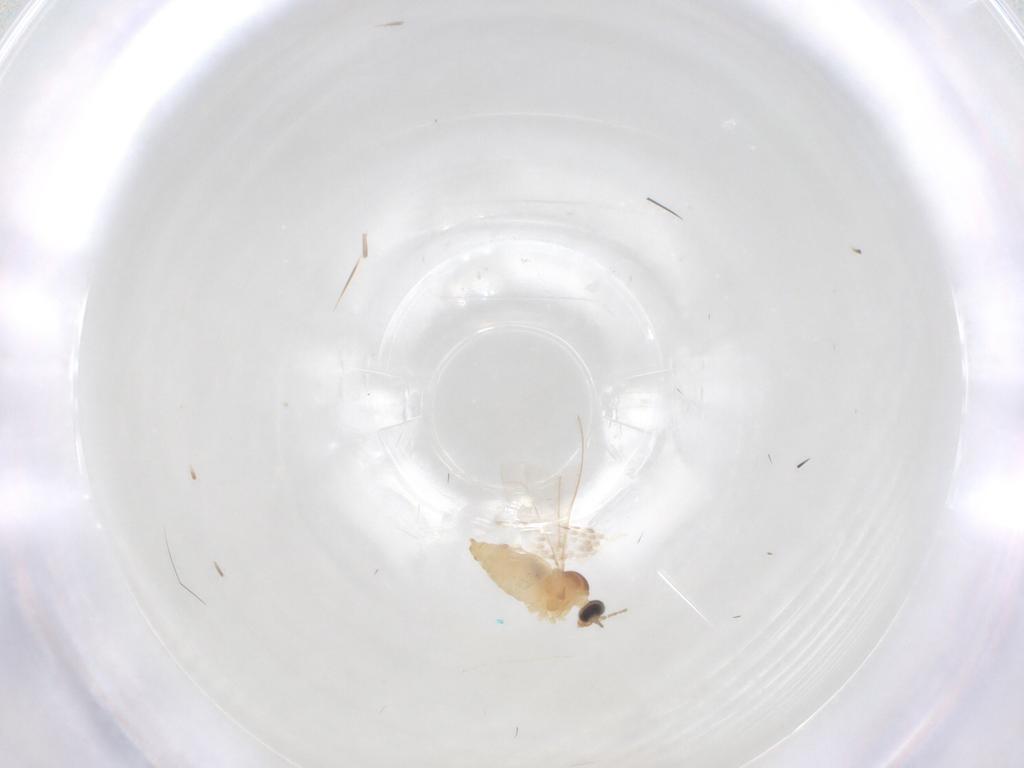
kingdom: Animalia
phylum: Arthropoda
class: Insecta
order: Diptera
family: Cecidomyiidae
